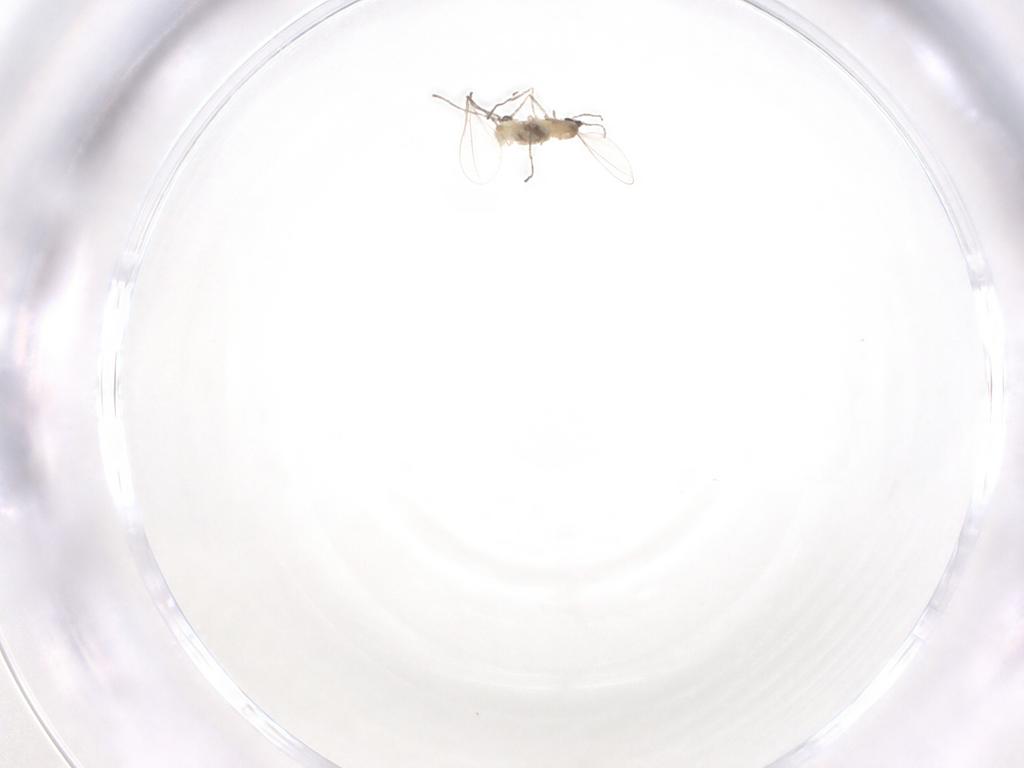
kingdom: Animalia
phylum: Arthropoda
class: Insecta
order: Diptera
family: Cecidomyiidae
